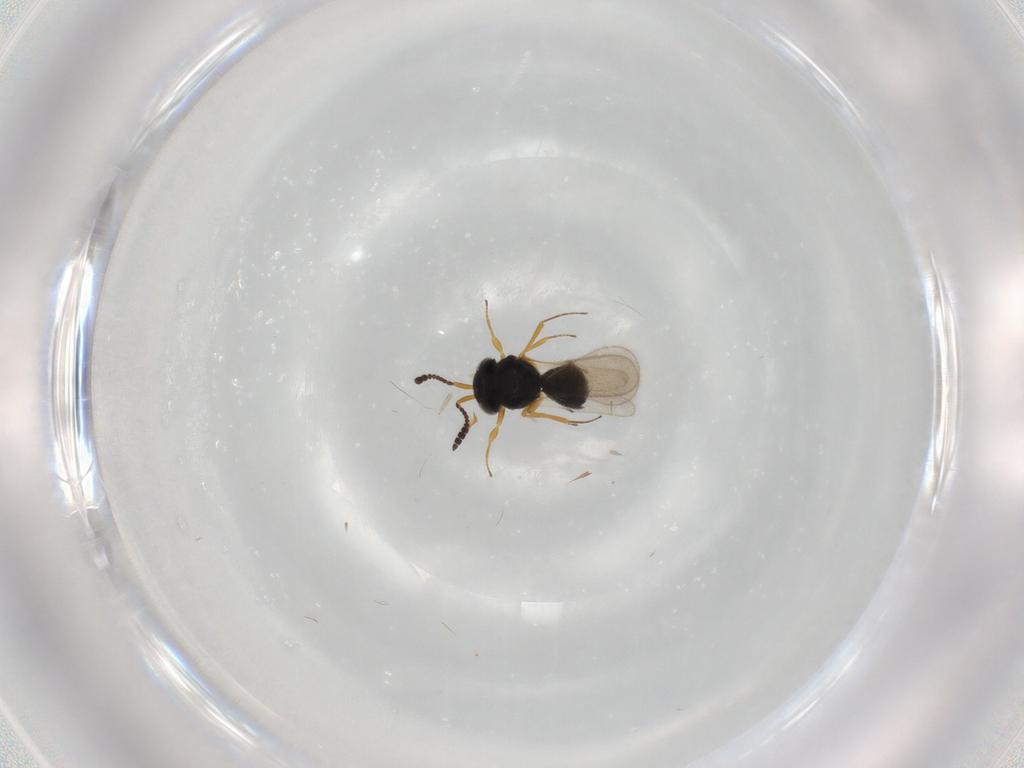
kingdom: Animalia
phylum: Arthropoda
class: Insecta
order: Hymenoptera
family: Scelionidae
